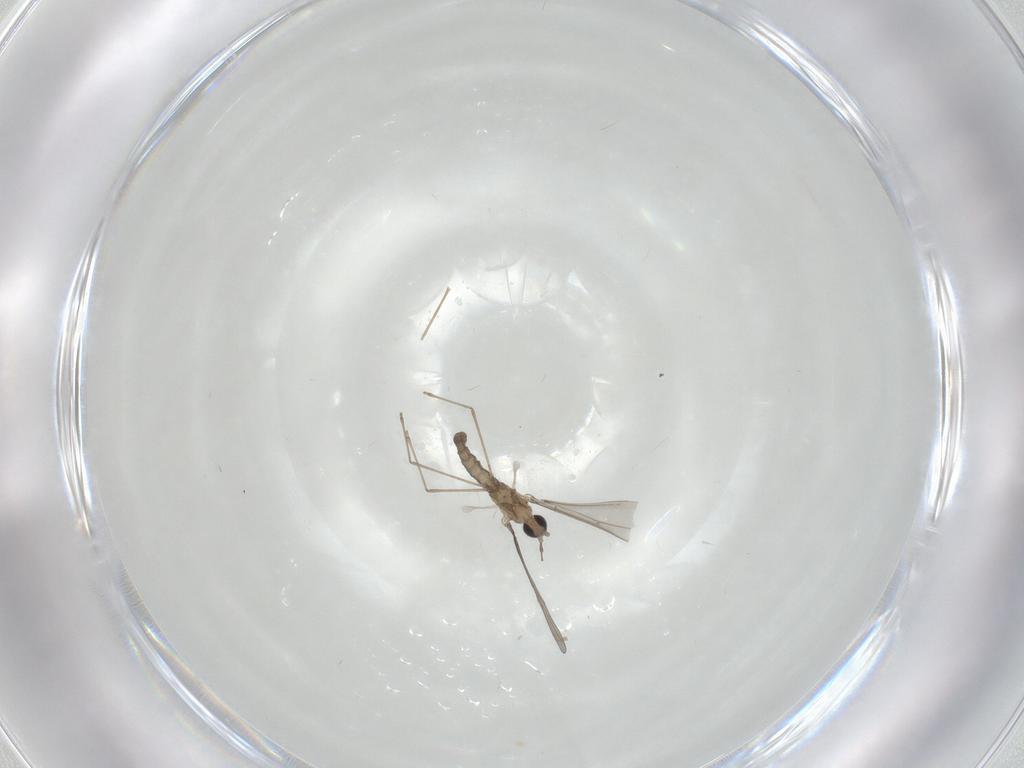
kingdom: Animalia
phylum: Arthropoda
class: Insecta
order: Diptera
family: Cecidomyiidae
